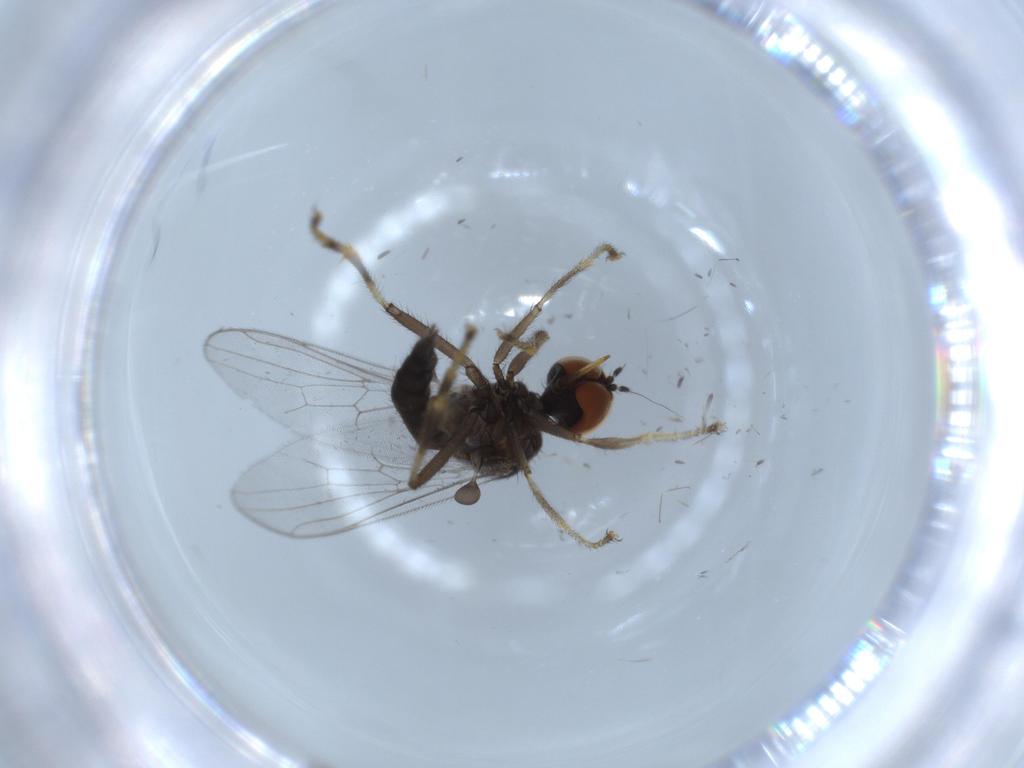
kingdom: Animalia
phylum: Arthropoda
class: Insecta
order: Diptera
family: Hybotidae
